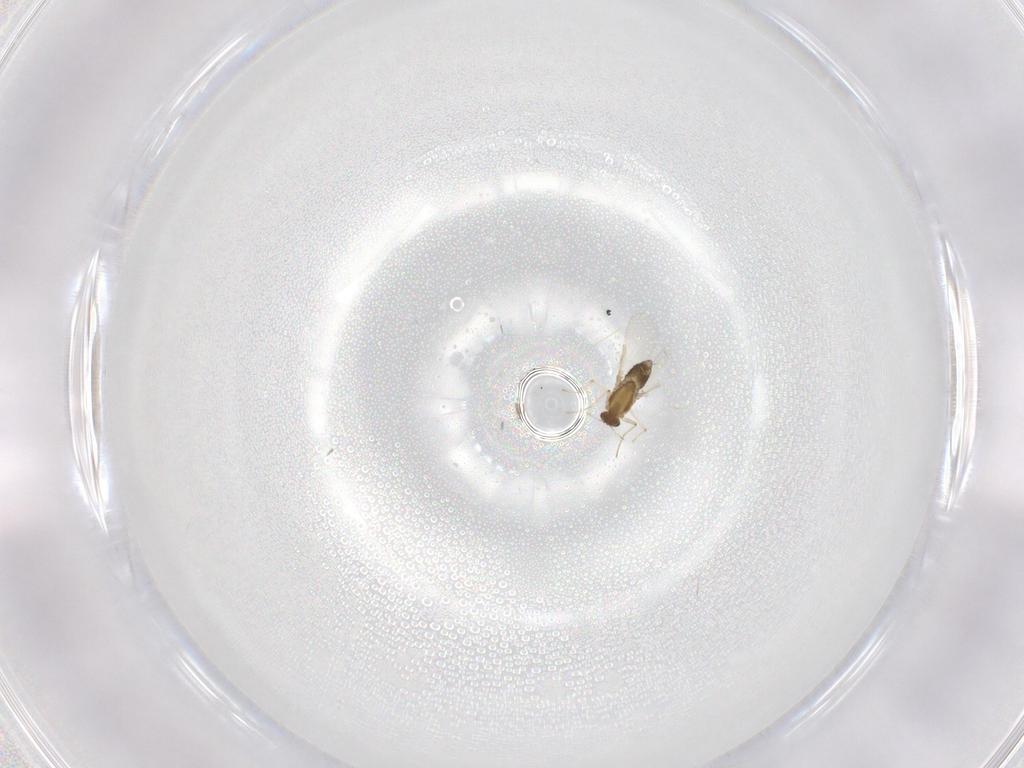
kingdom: Animalia
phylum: Arthropoda
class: Insecta
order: Diptera
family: Chironomidae
